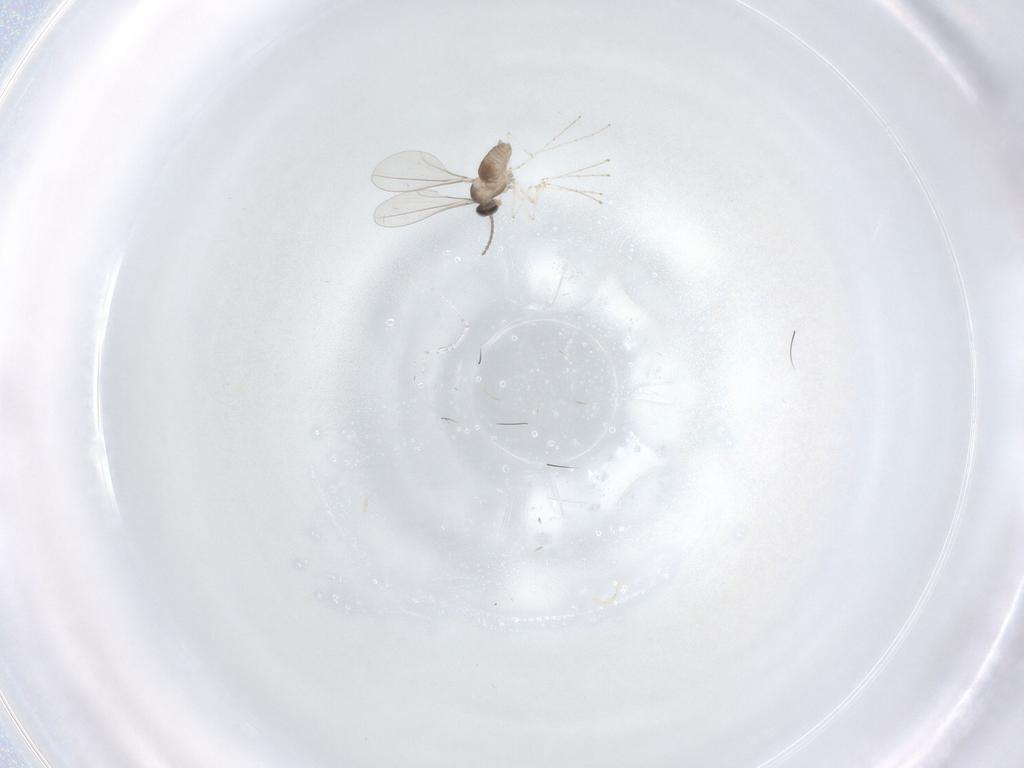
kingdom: Animalia
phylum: Arthropoda
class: Insecta
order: Diptera
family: Cecidomyiidae
